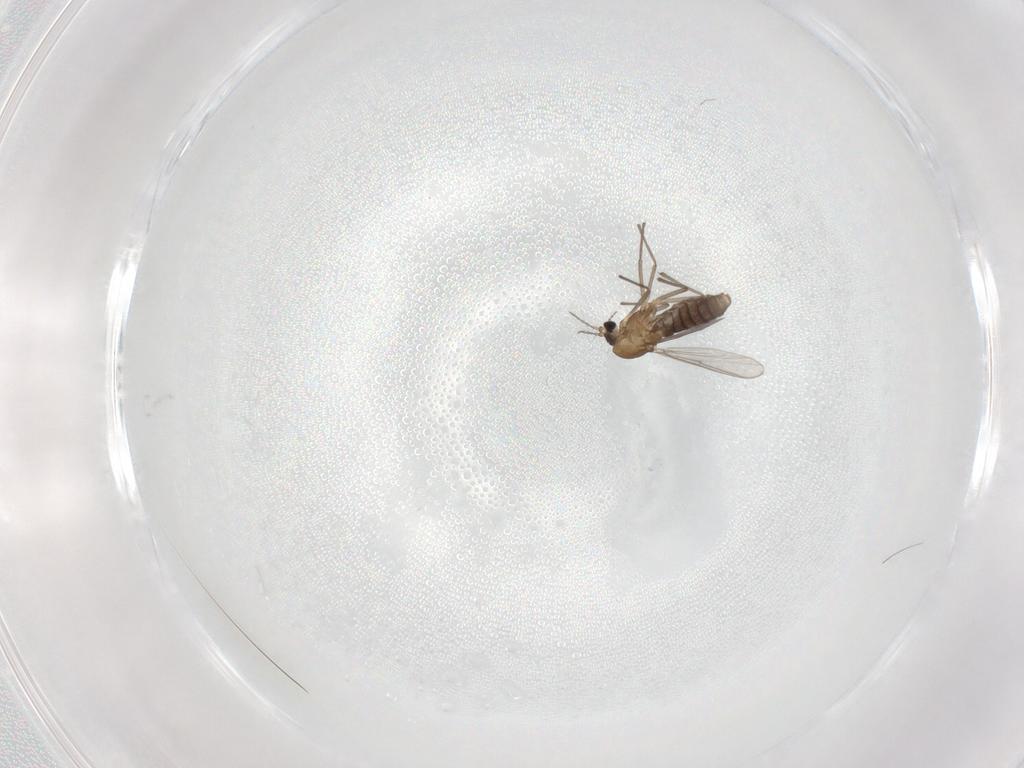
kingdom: Animalia
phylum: Arthropoda
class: Insecta
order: Diptera
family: Chironomidae
